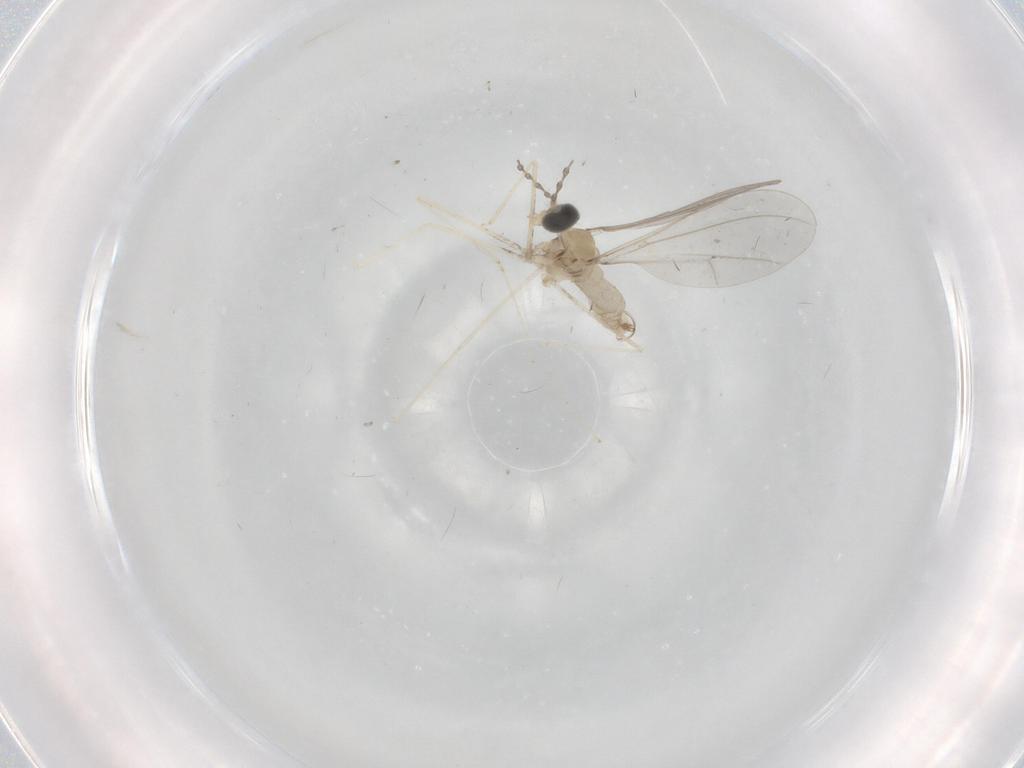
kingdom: Animalia
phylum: Arthropoda
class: Insecta
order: Diptera
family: Cecidomyiidae
